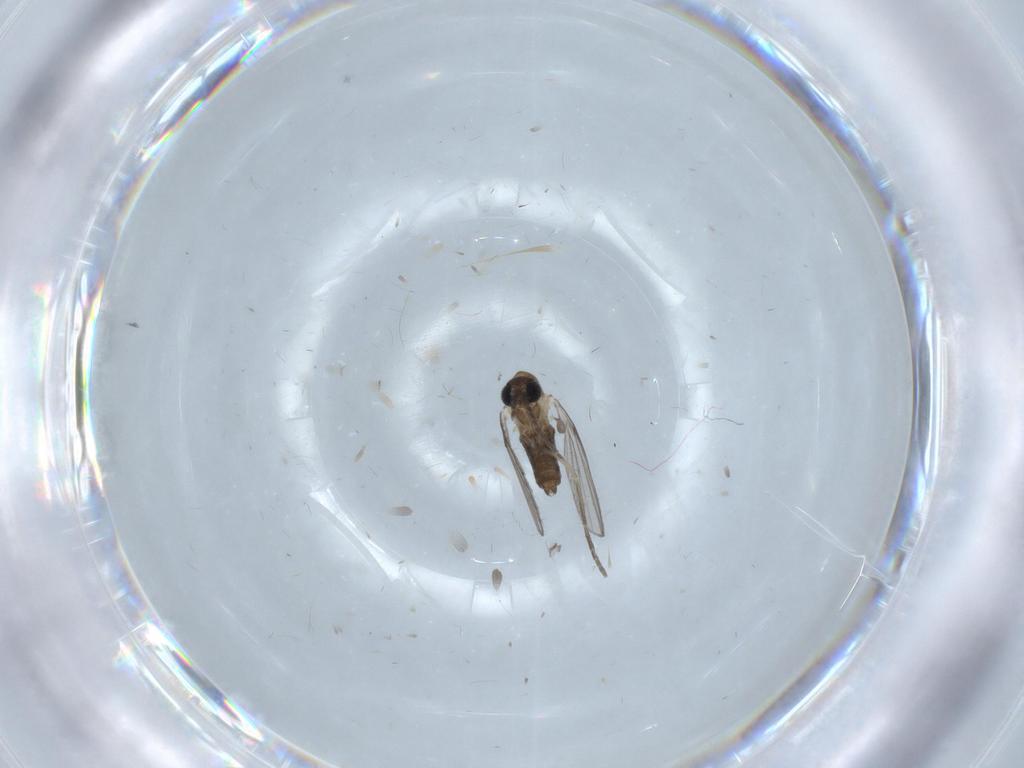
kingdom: Animalia
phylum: Arthropoda
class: Insecta
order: Diptera
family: Psychodidae
